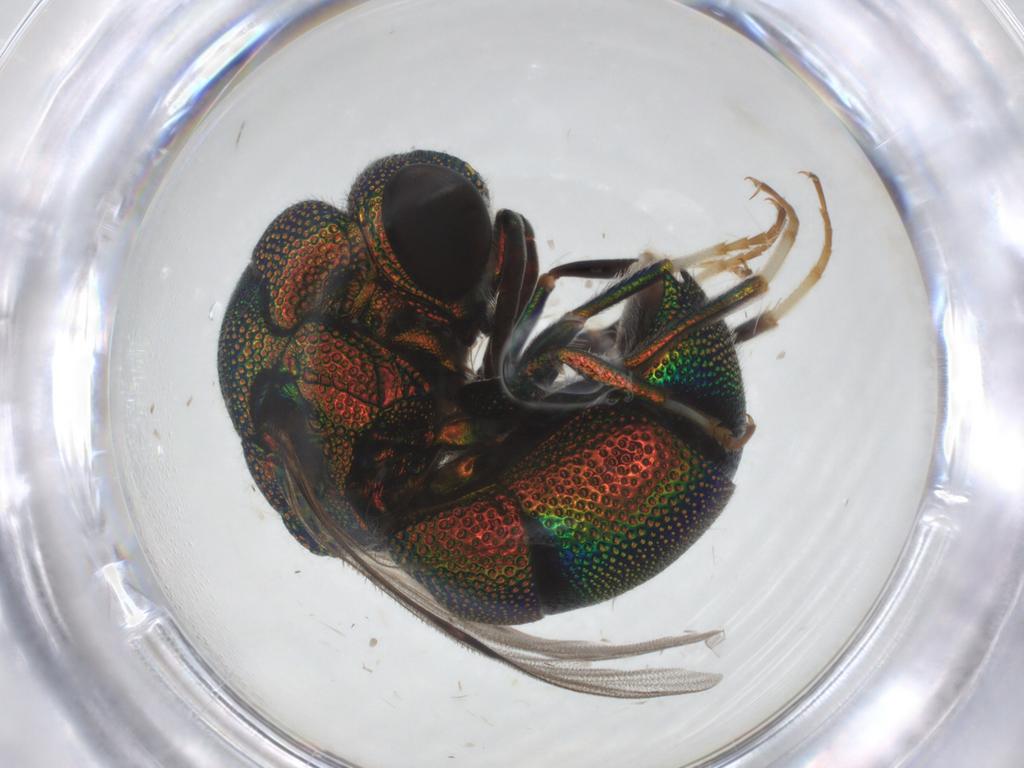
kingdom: Animalia
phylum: Arthropoda
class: Insecta
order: Hymenoptera
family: Chrysididae
